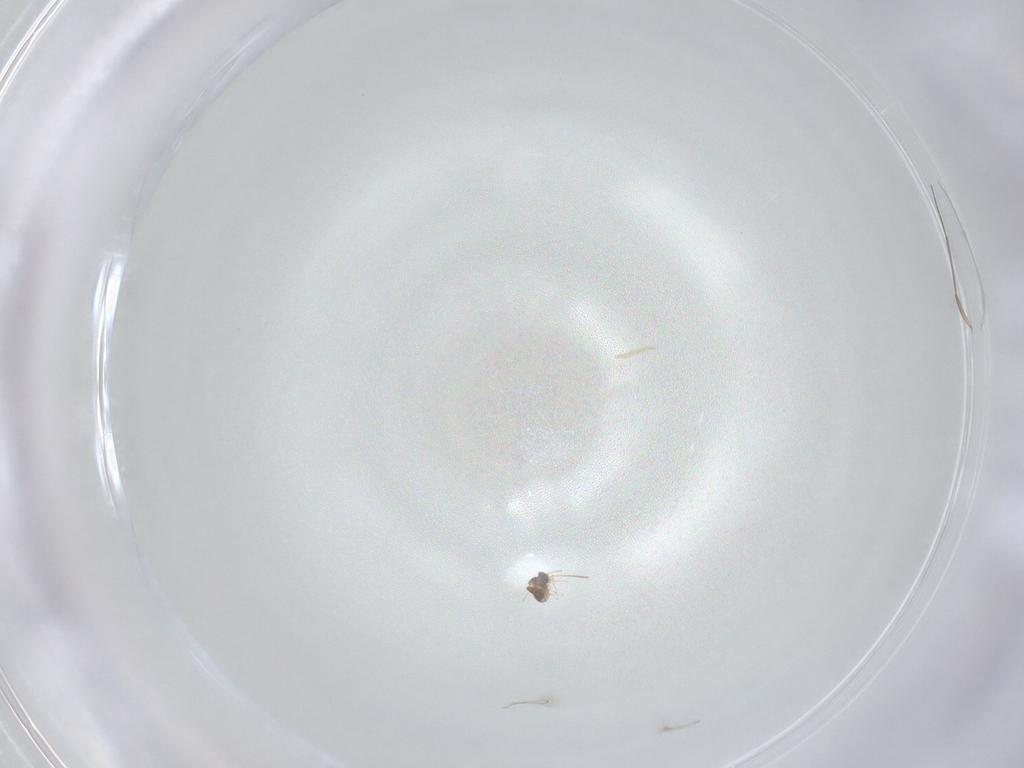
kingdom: Animalia
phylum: Arthropoda
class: Insecta
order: Diptera
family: Sciaridae
